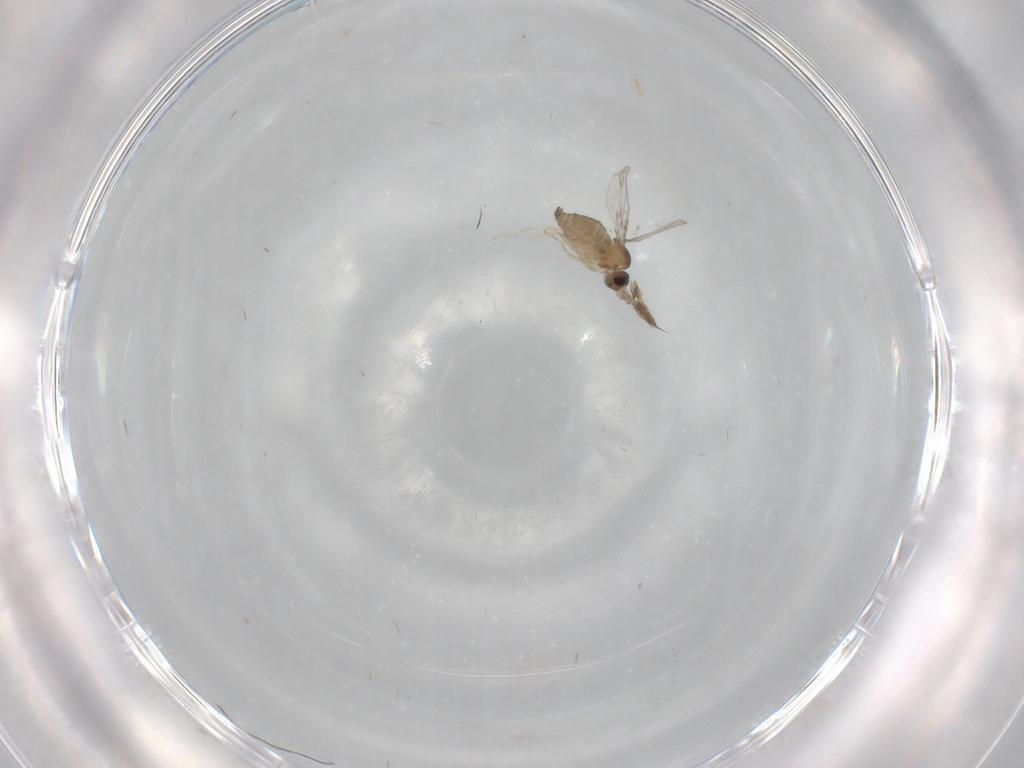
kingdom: Animalia
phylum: Arthropoda
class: Insecta
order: Diptera
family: Cecidomyiidae
